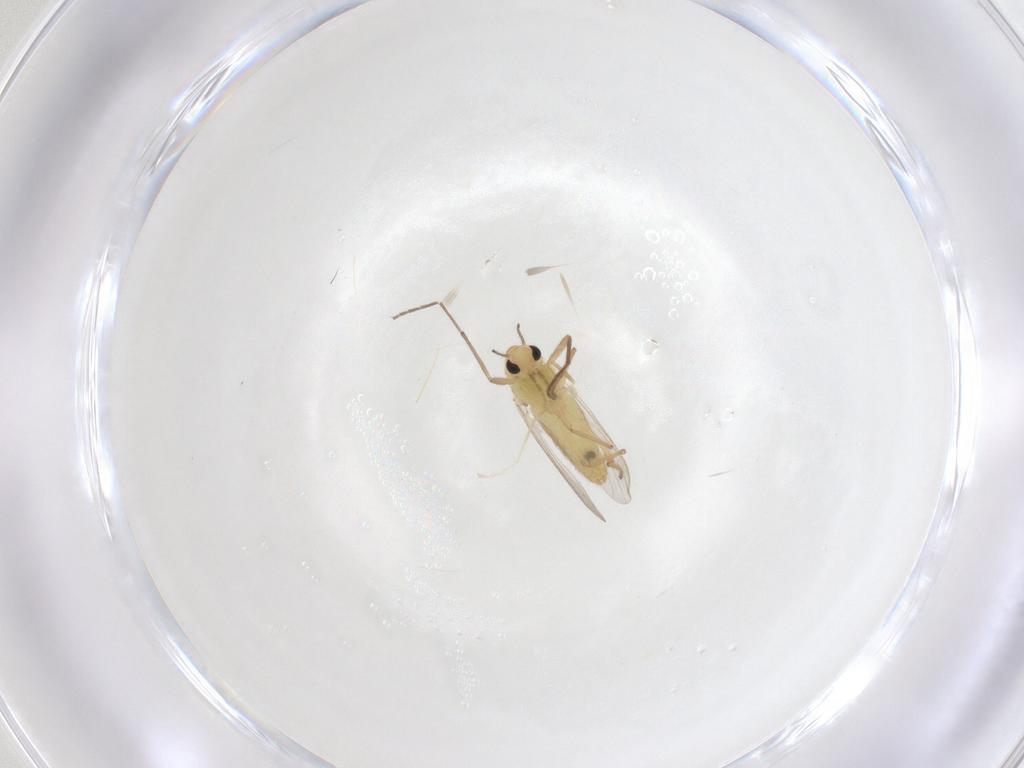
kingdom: Animalia
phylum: Arthropoda
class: Insecta
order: Diptera
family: Chironomidae
